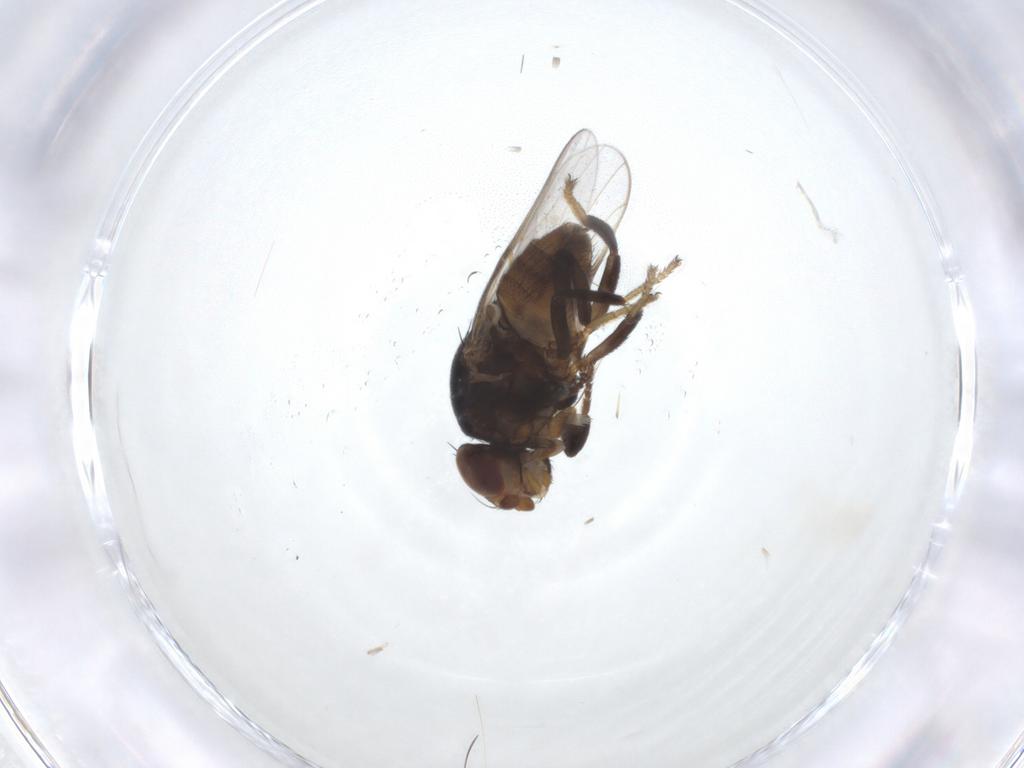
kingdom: Animalia
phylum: Arthropoda
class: Insecta
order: Diptera
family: Chloropidae
